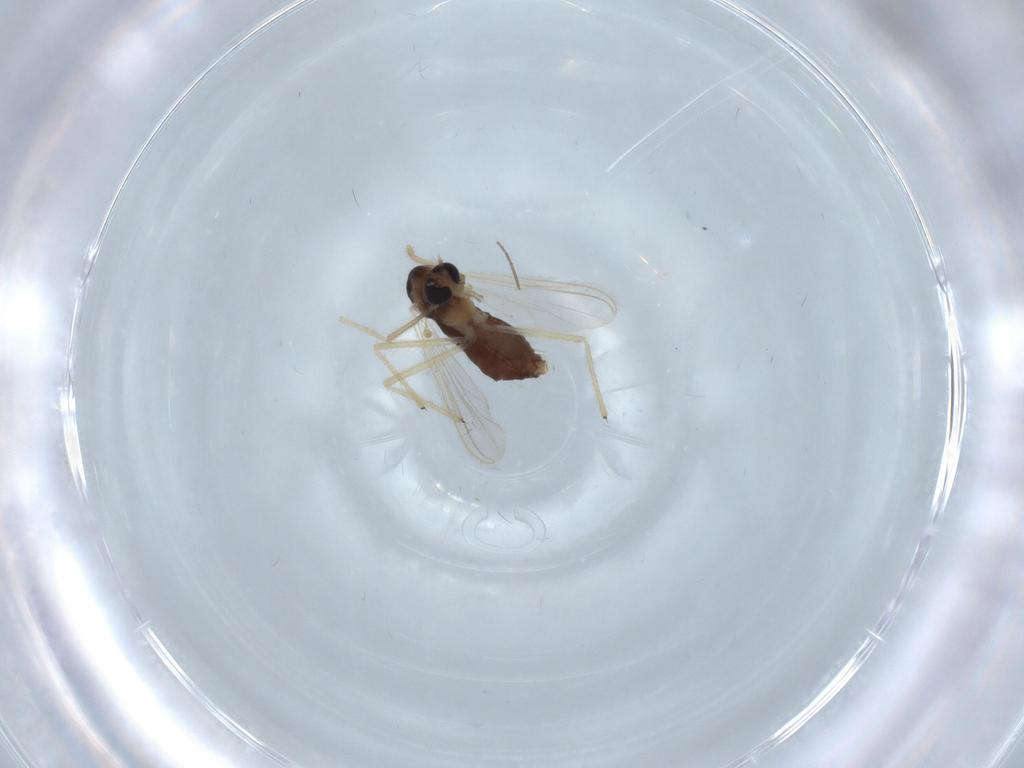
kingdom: Animalia
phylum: Arthropoda
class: Insecta
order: Diptera
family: Chironomidae
